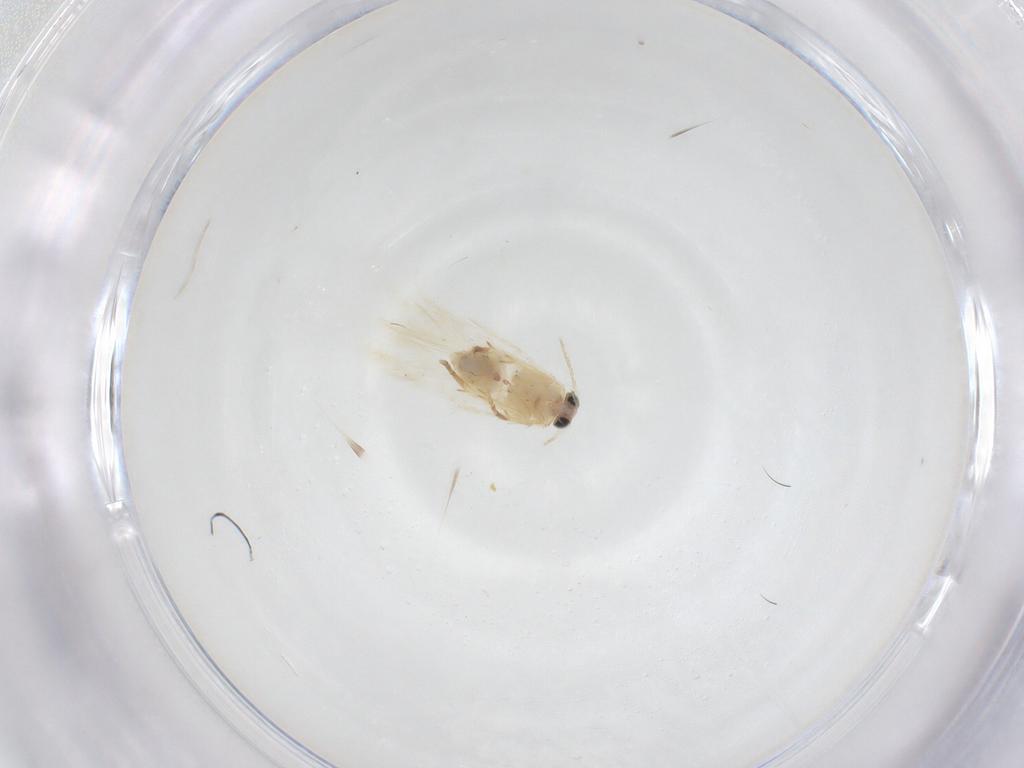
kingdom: Animalia
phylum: Arthropoda
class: Insecta
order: Lepidoptera
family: Nepticulidae
